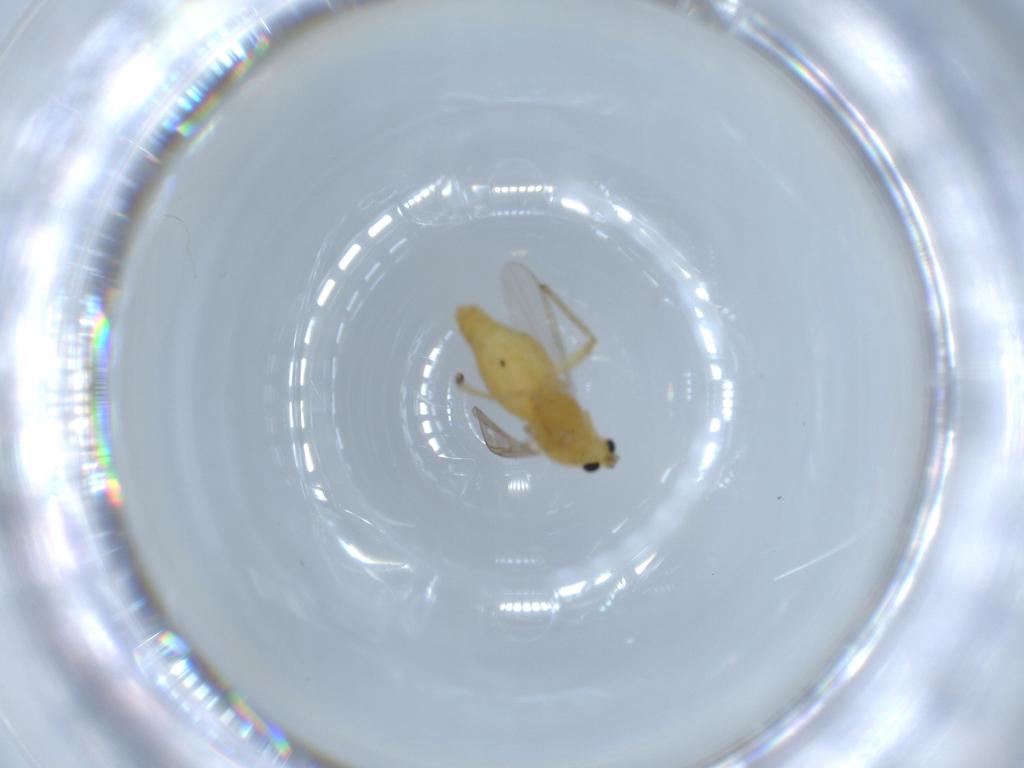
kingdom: Animalia
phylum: Arthropoda
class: Insecta
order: Diptera
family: Chironomidae
